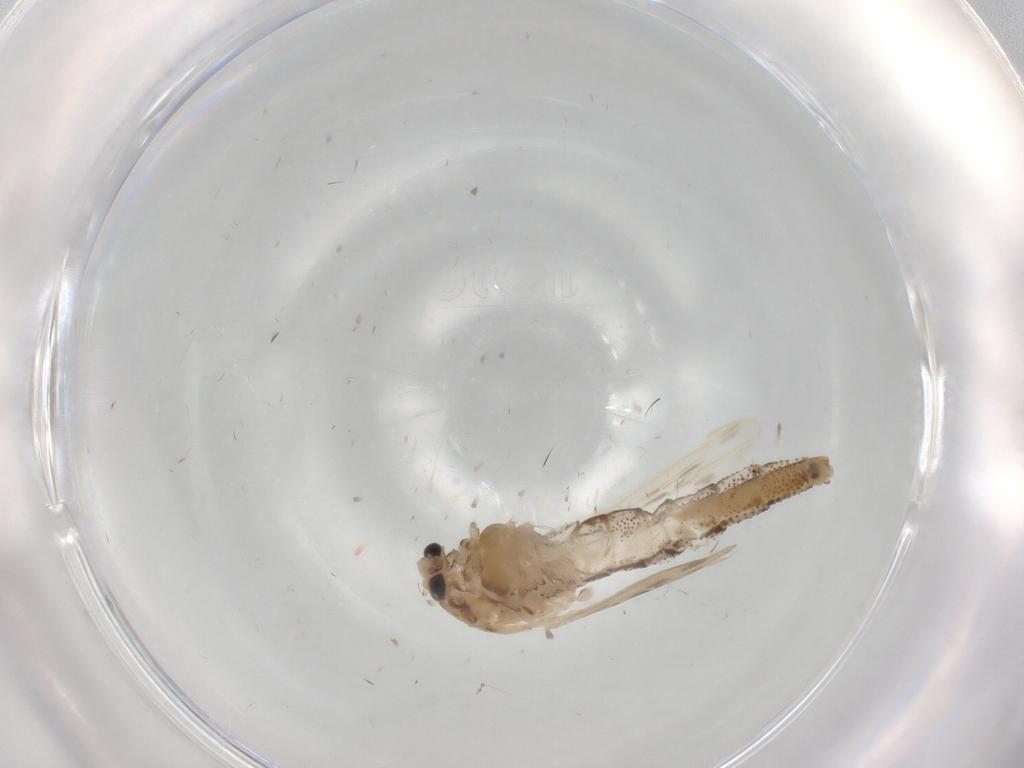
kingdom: Animalia
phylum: Arthropoda
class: Insecta
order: Diptera
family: Chaoboridae
